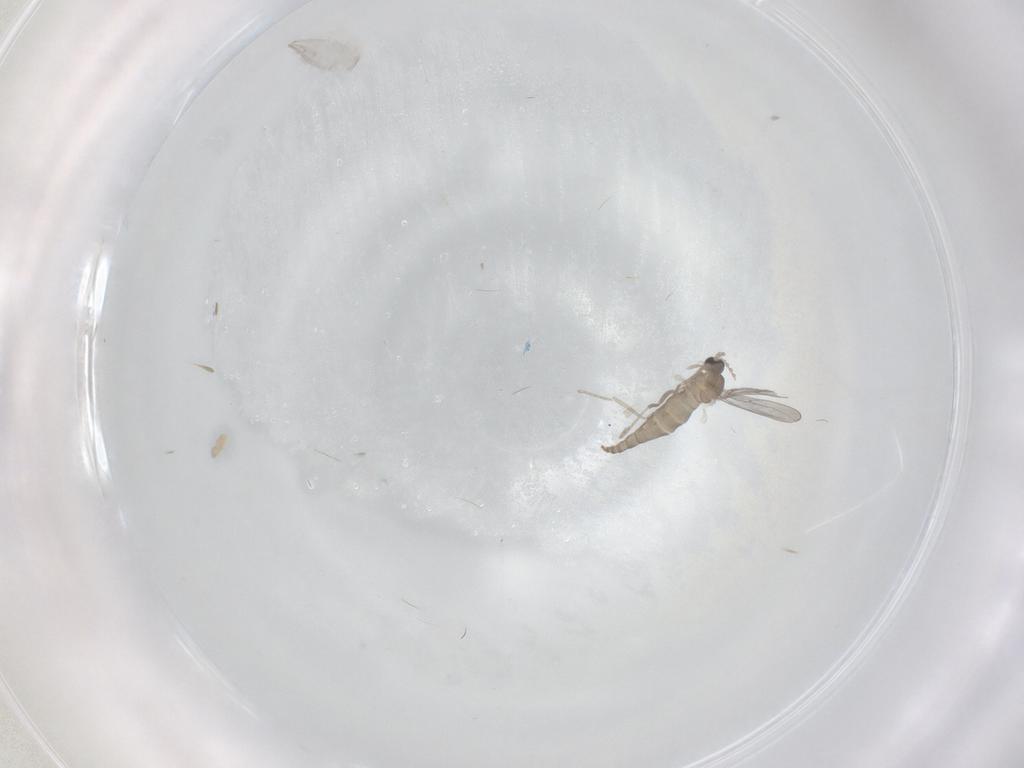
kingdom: Animalia
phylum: Arthropoda
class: Insecta
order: Diptera
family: Cecidomyiidae
